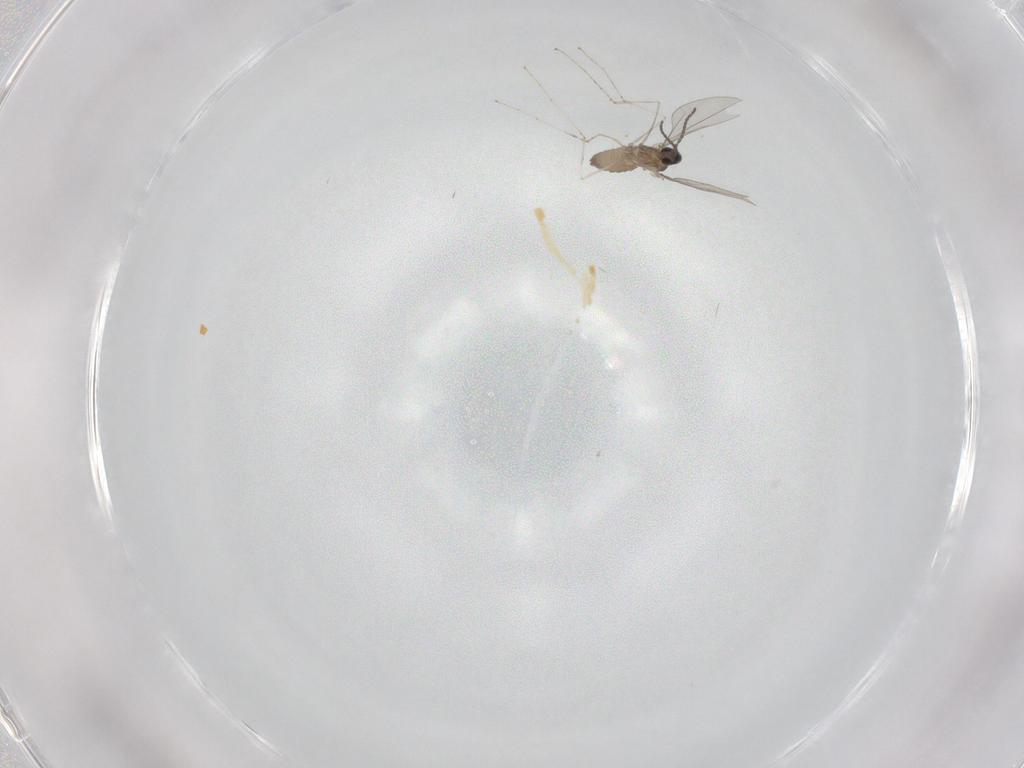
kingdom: Animalia
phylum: Arthropoda
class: Insecta
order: Diptera
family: Cecidomyiidae
